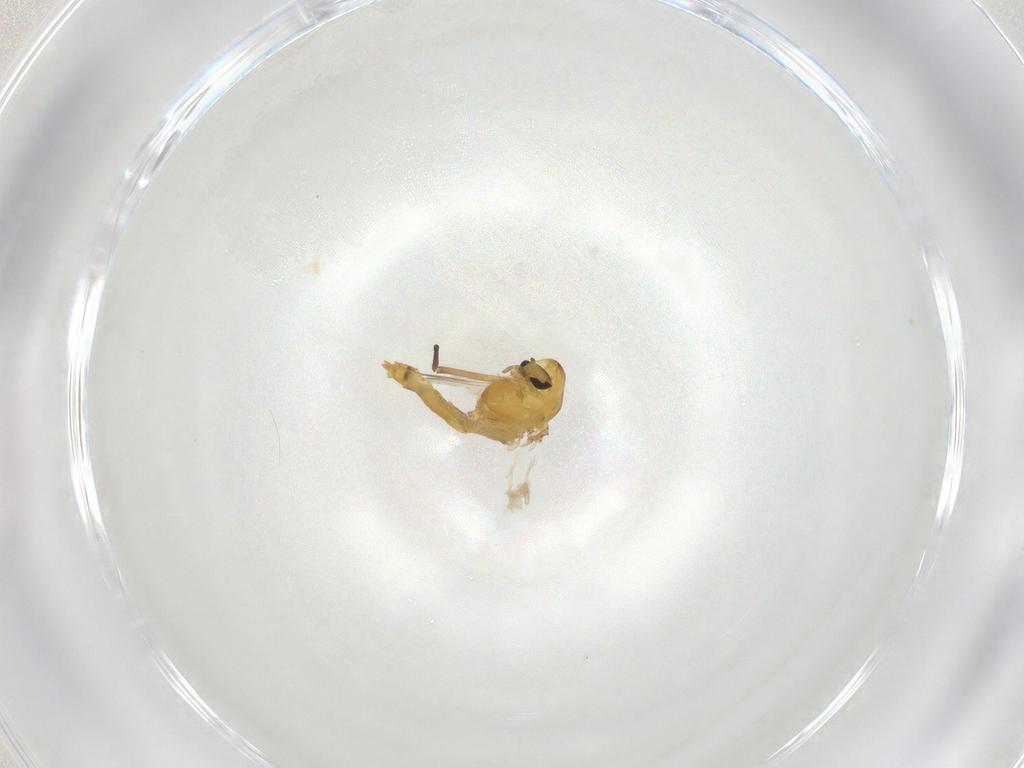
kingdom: Animalia
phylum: Arthropoda
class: Insecta
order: Diptera
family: Chironomidae
